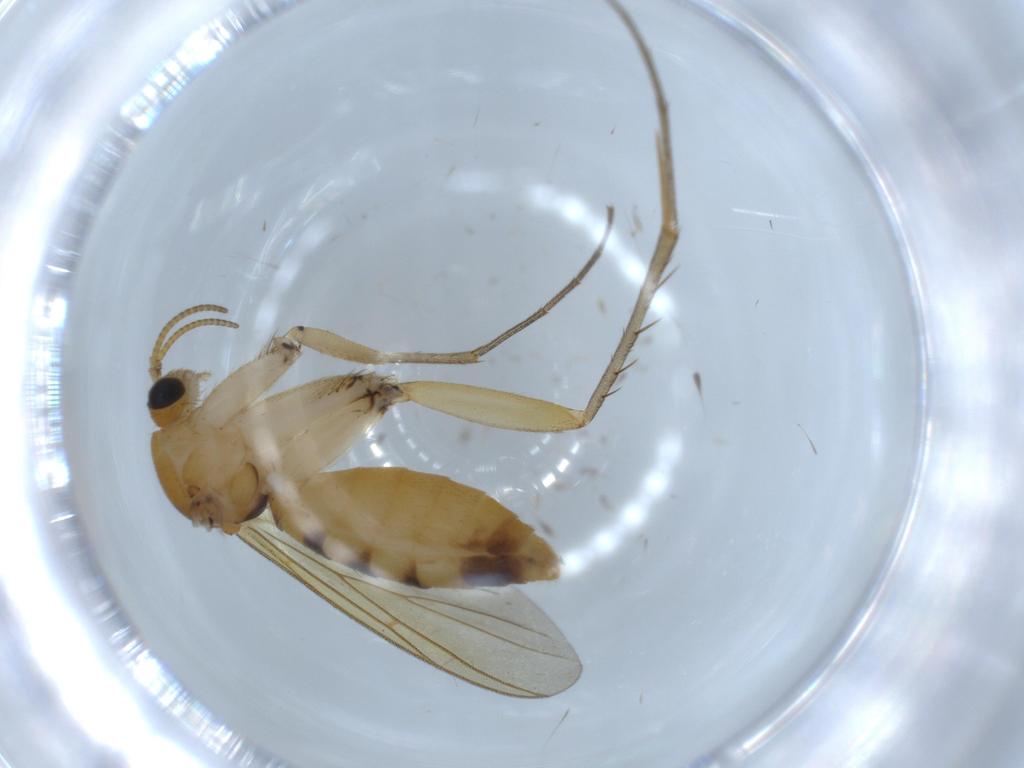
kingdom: Animalia
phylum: Arthropoda
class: Insecta
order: Diptera
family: Mycetophilidae
